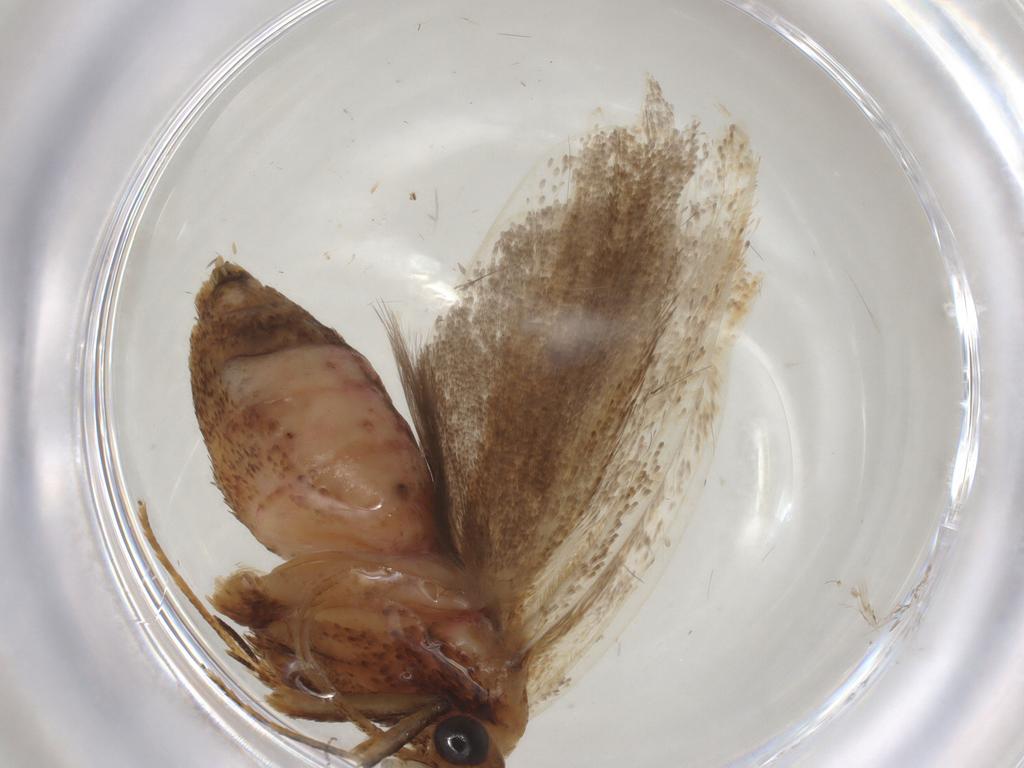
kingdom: Animalia
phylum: Arthropoda
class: Insecta
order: Lepidoptera
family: Lecithoceridae
